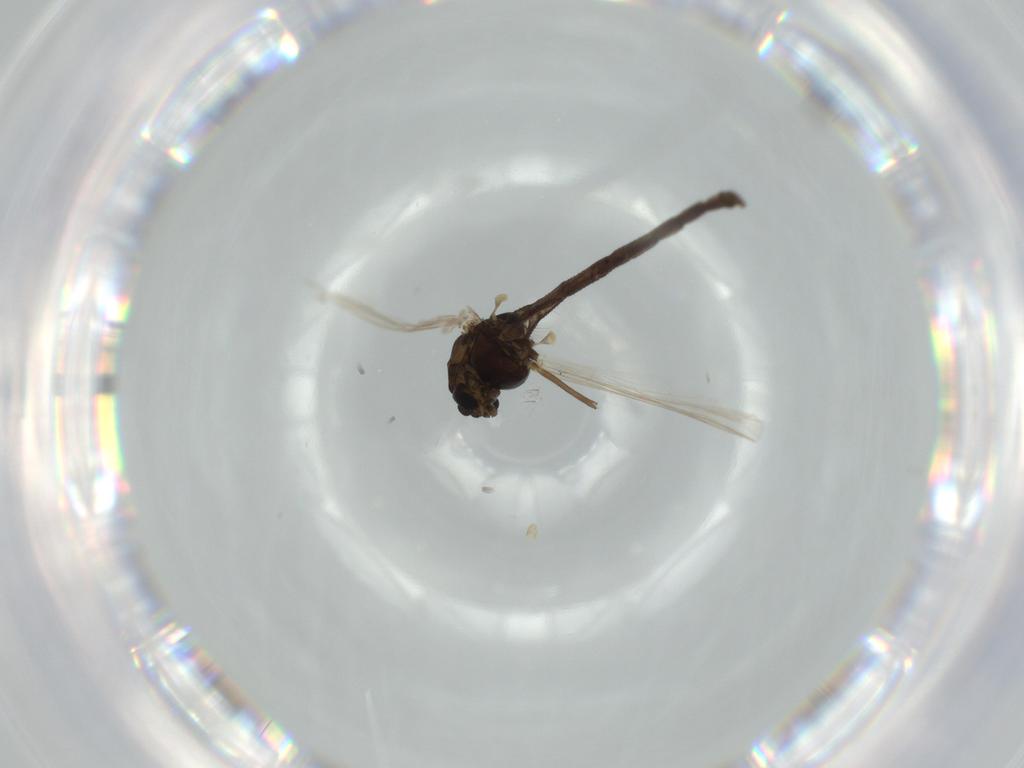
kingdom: Animalia
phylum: Arthropoda
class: Insecta
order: Diptera
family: Chironomidae
